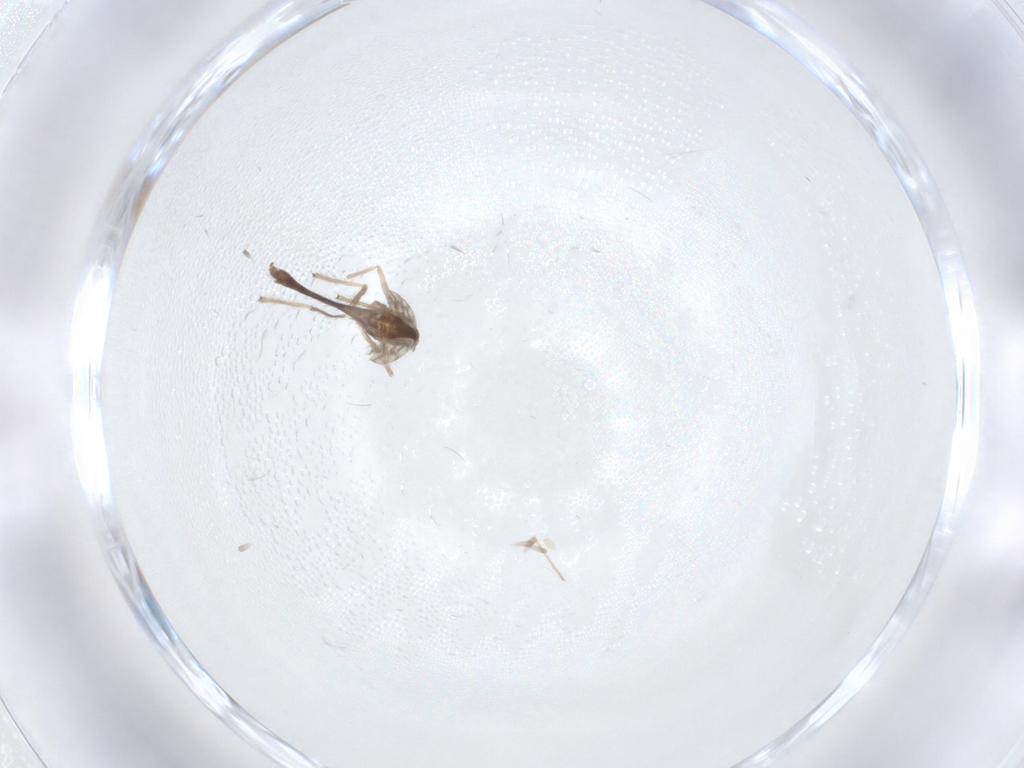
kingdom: Animalia
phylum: Arthropoda
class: Insecta
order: Diptera
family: Chironomidae
